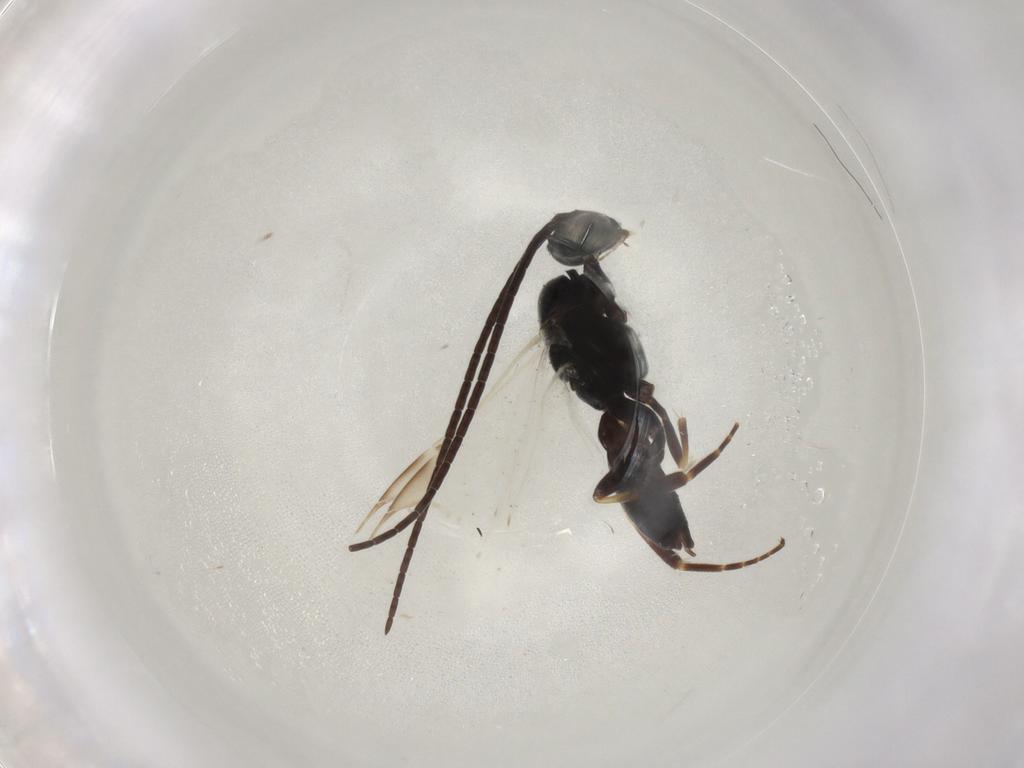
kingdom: Animalia
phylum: Arthropoda
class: Insecta
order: Hymenoptera
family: Braconidae
